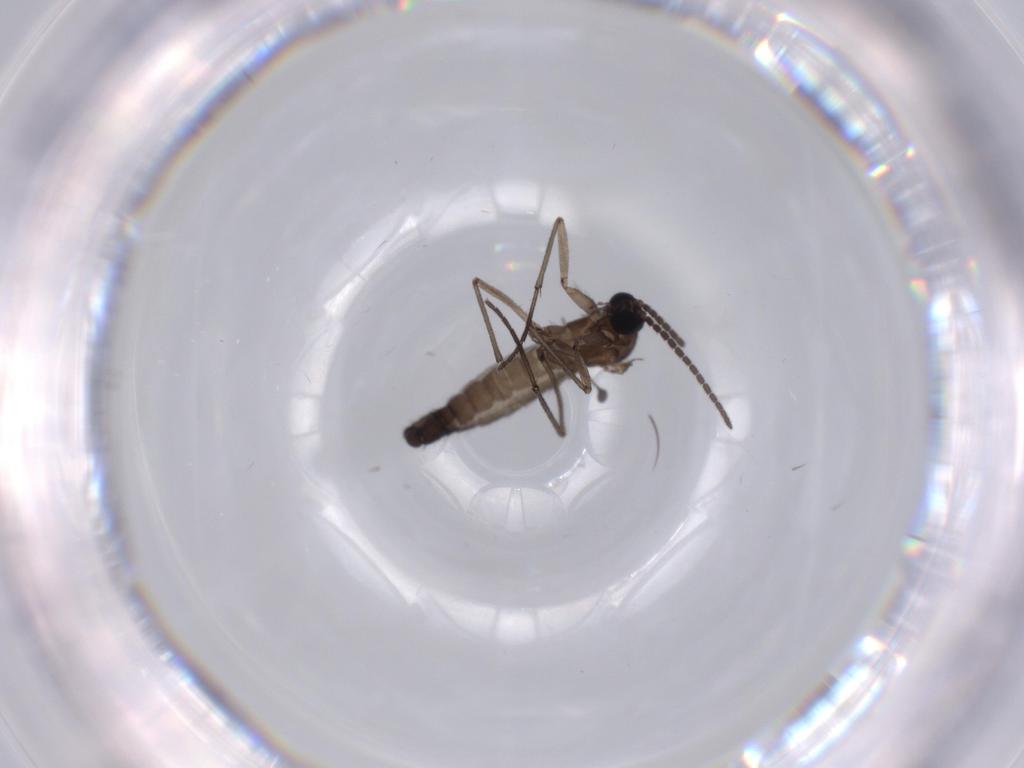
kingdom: Animalia
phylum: Arthropoda
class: Insecta
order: Diptera
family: Sciaridae
